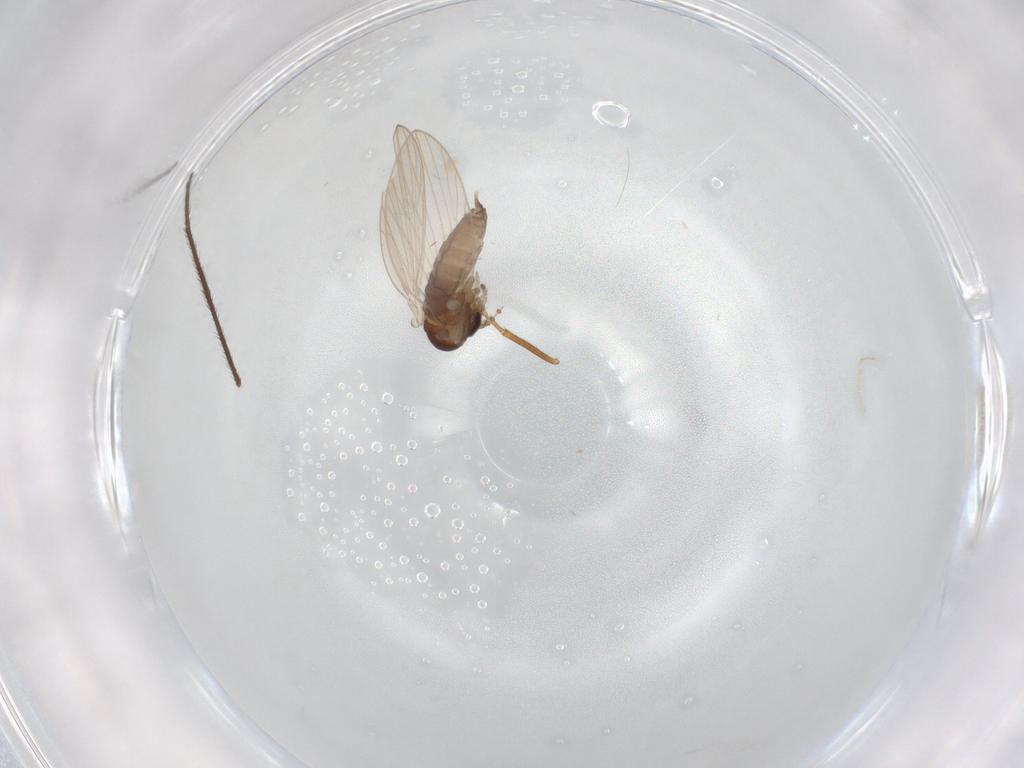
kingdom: Animalia
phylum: Arthropoda
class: Insecta
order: Diptera
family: Psychodidae
